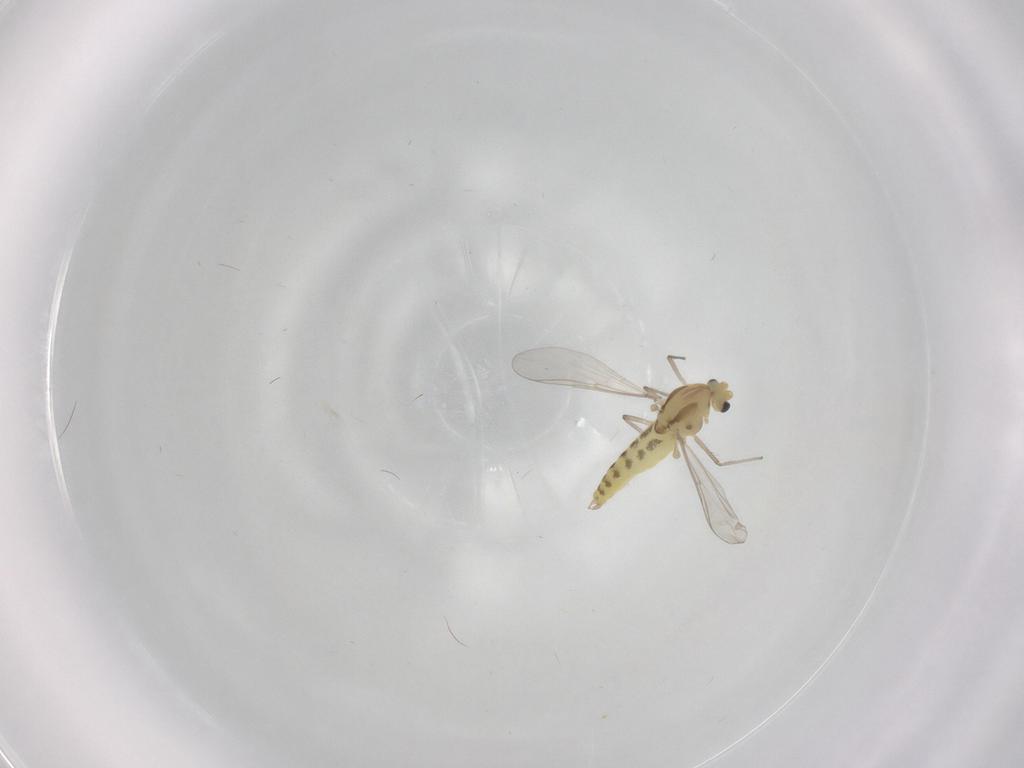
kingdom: Animalia
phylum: Arthropoda
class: Insecta
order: Diptera
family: Chironomidae
